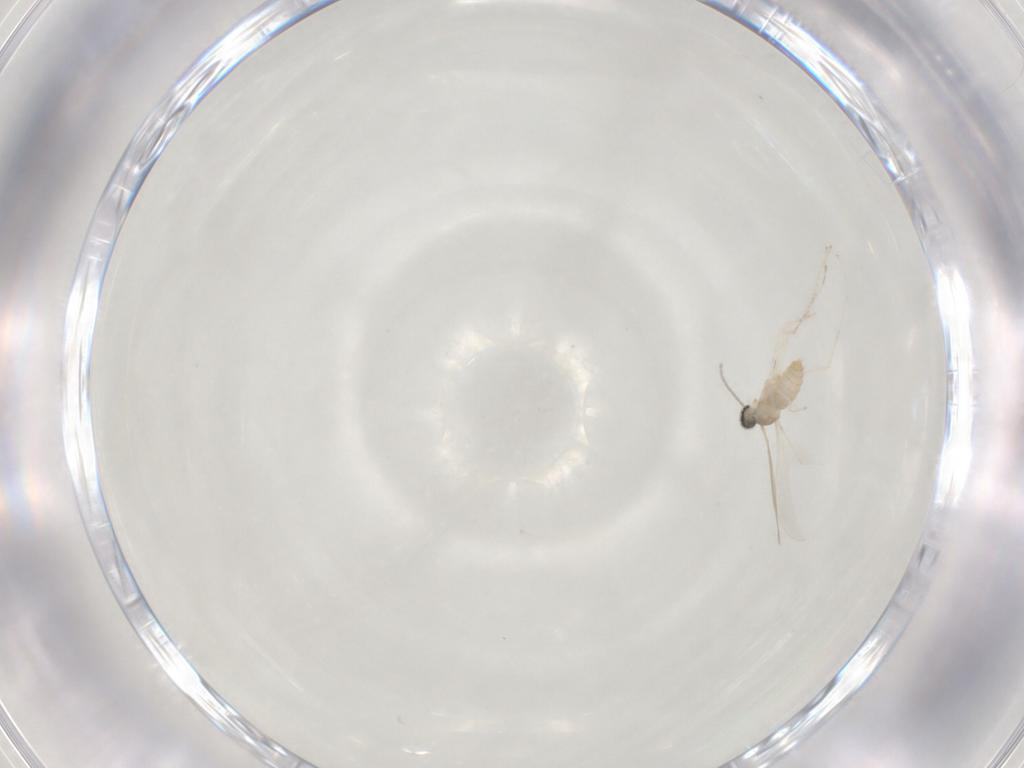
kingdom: Animalia
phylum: Arthropoda
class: Insecta
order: Diptera
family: Cecidomyiidae
